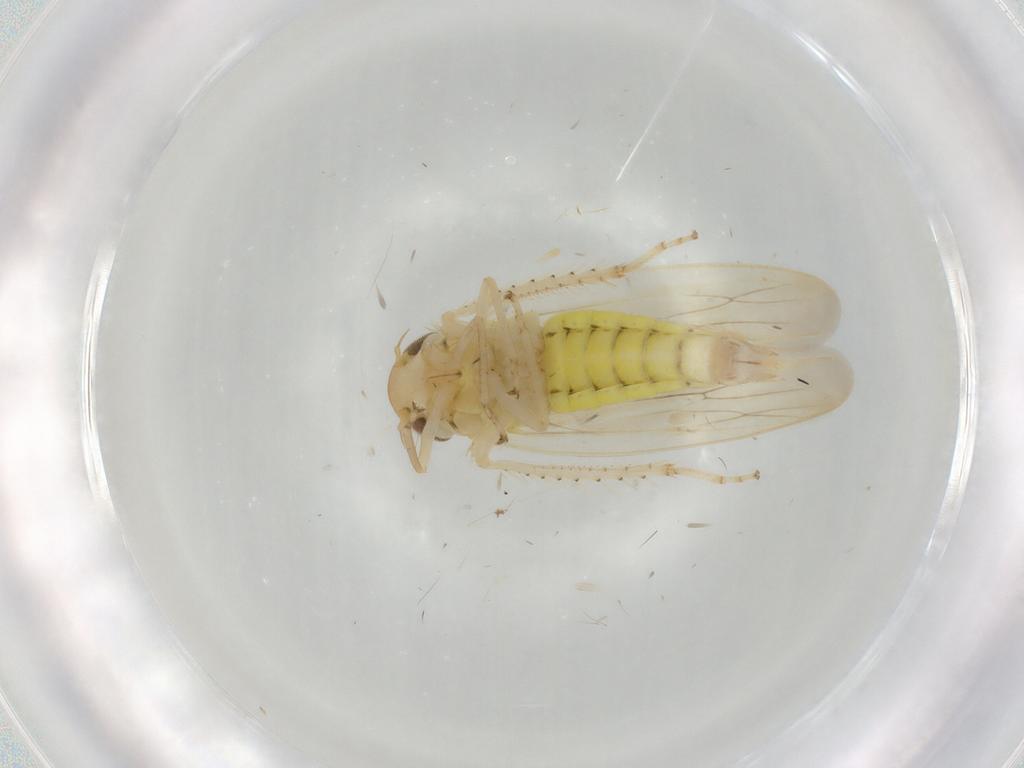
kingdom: Animalia
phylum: Arthropoda
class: Insecta
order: Hemiptera
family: Cicadellidae
